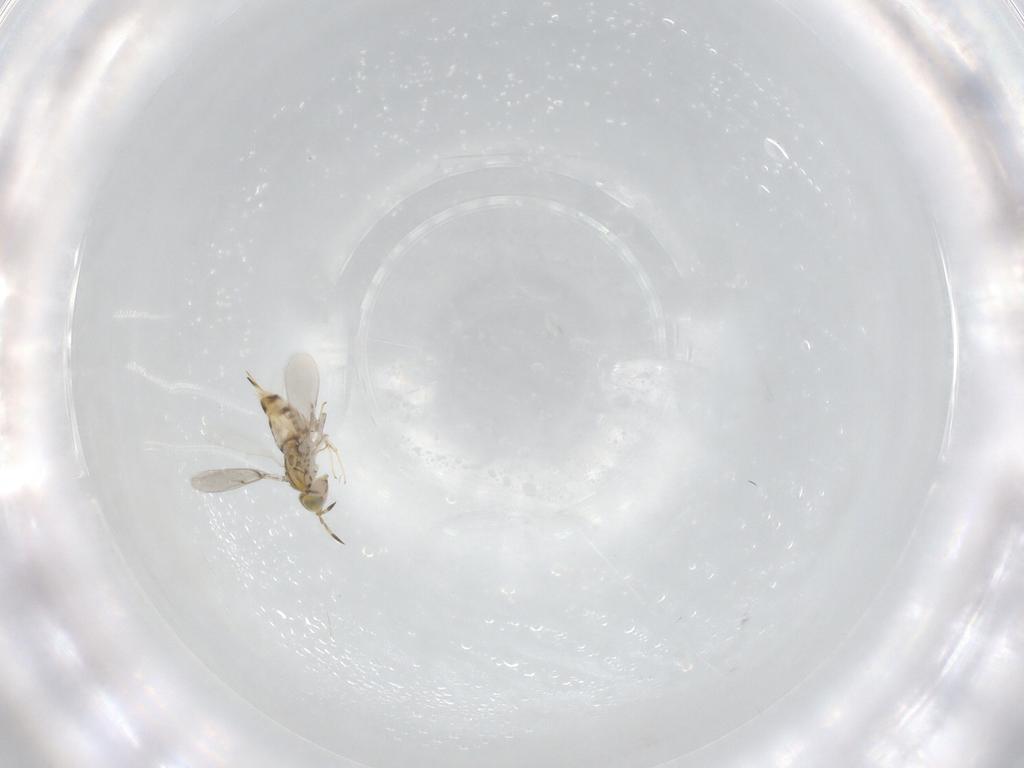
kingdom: Animalia
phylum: Arthropoda
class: Insecta
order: Hymenoptera
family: Aphelinidae
